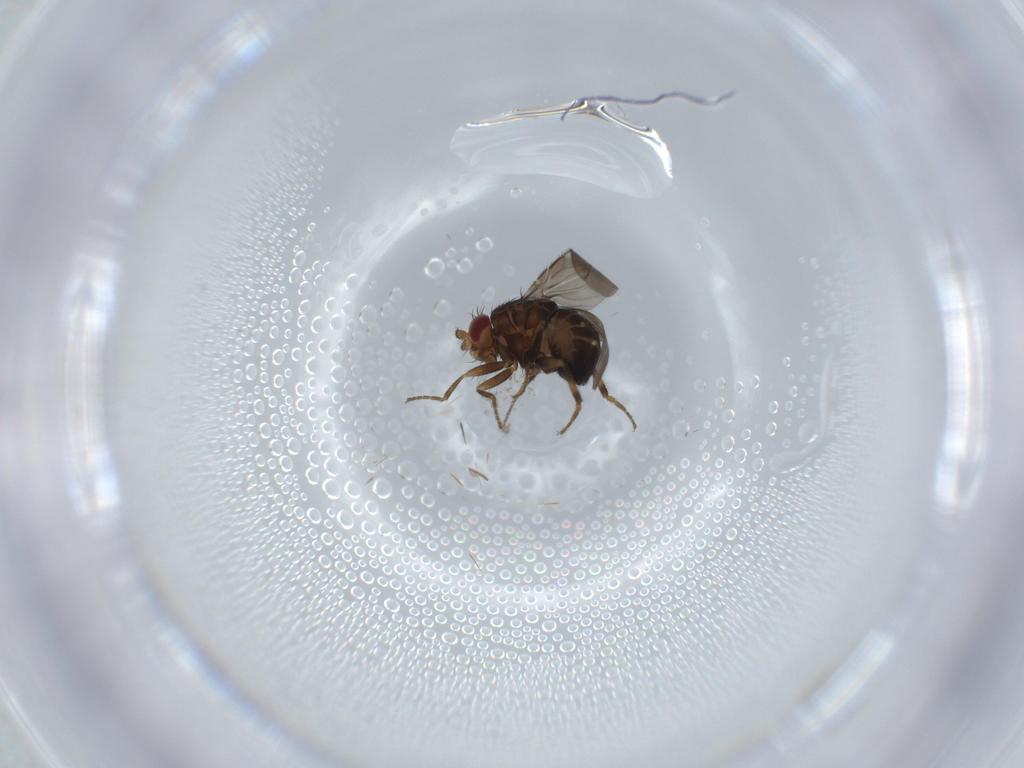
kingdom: Animalia
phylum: Arthropoda
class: Insecta
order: Diptera
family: Sphaeroceridae
